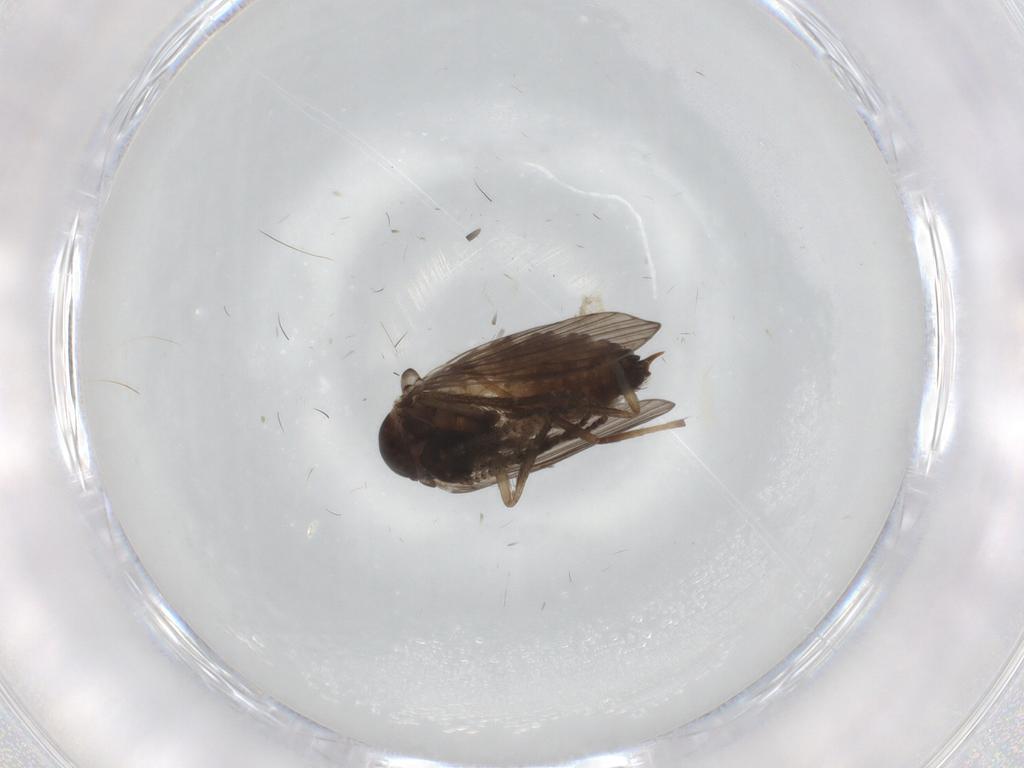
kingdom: Animalia
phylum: Arthropoda
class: Insecta
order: Diptera
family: Psychodidae
